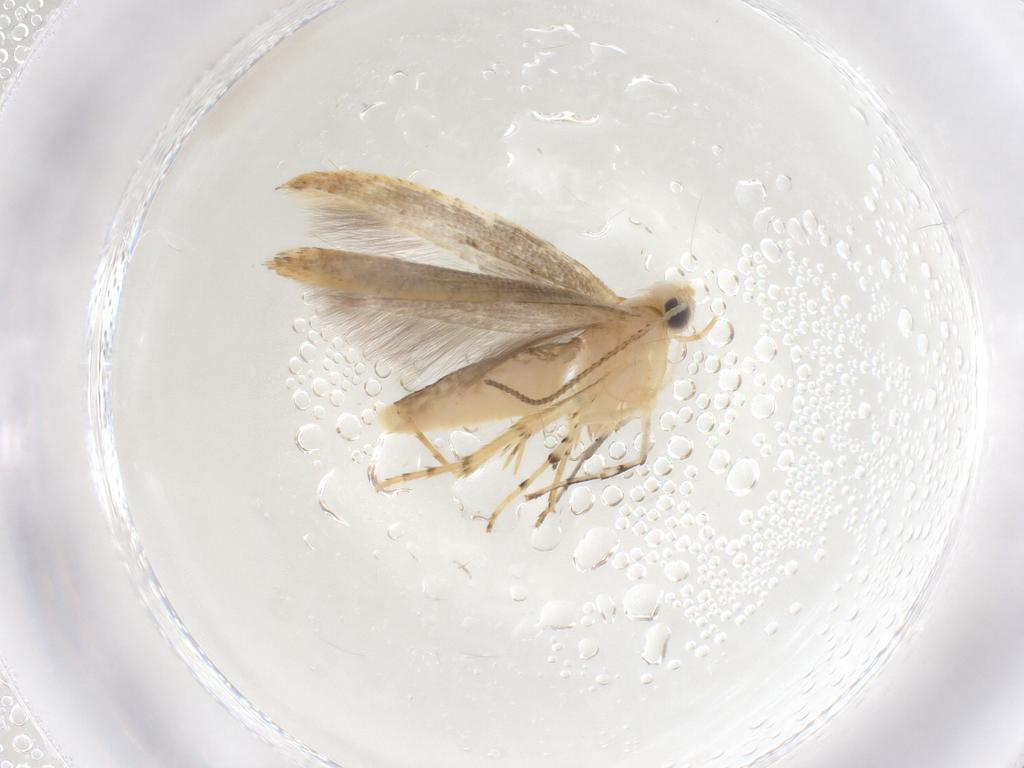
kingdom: Animalia
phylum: Arthropoda
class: Insecta
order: Lepidoptera
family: Argyresthiidae
